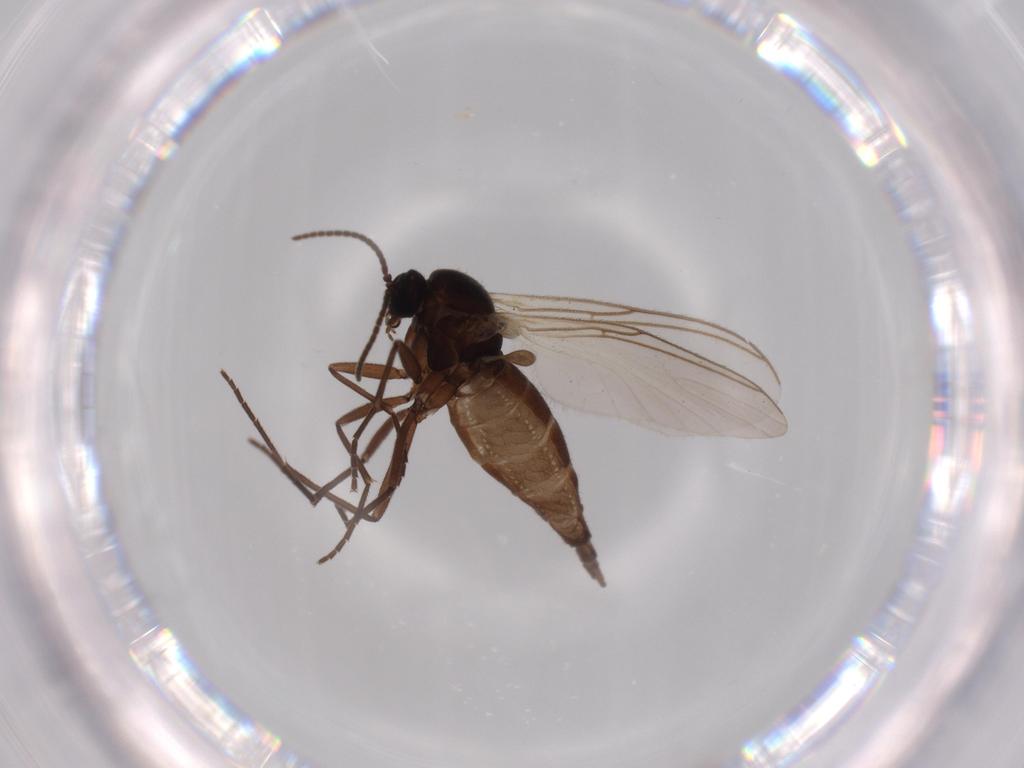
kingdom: Animalia
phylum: Arthropoda
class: Insecta
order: Diptera
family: Sciaridae
